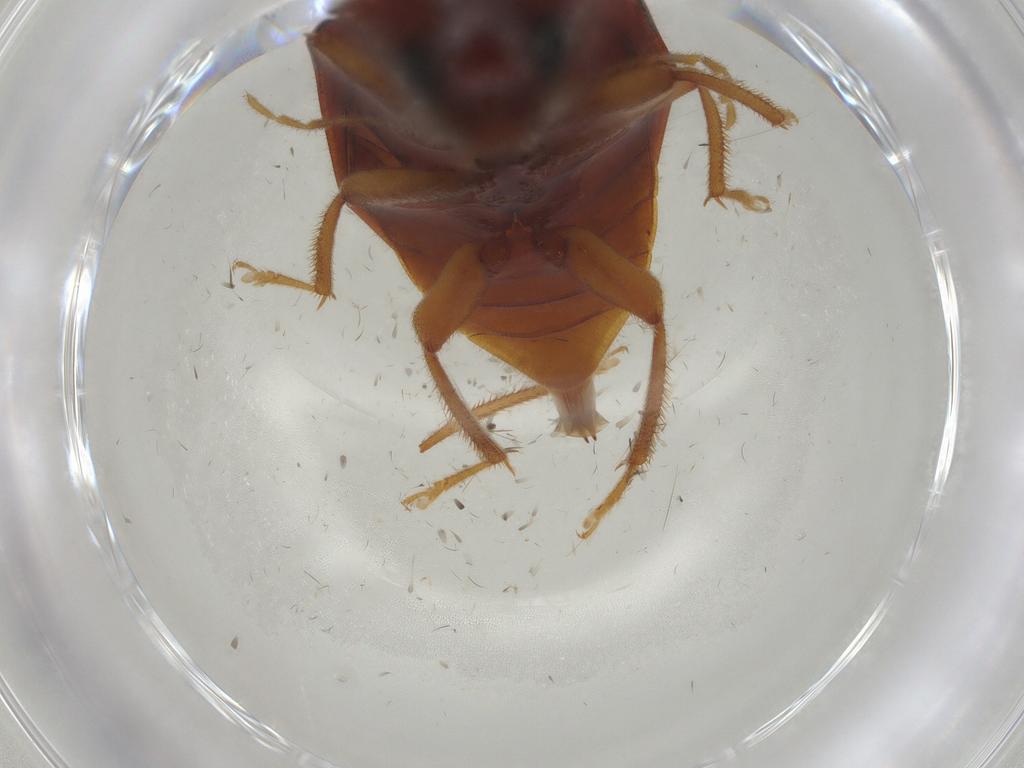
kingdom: Animalia
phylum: Arthropoda
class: Insecta
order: Coleoptera
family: Ptilodactylidae
